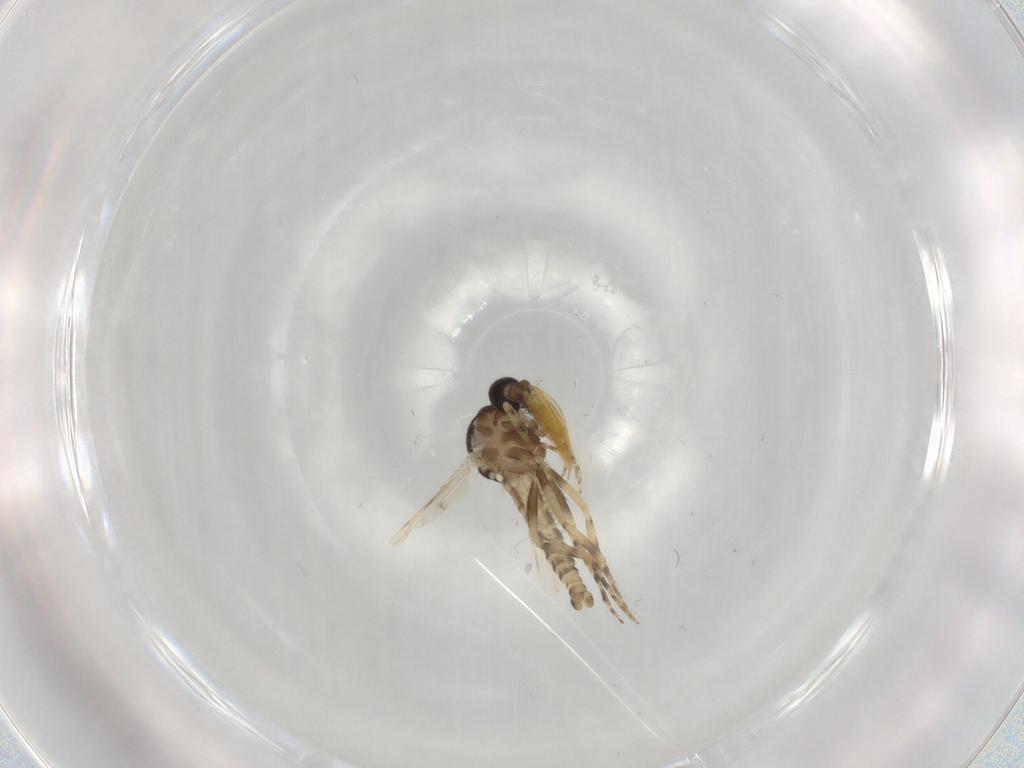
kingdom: Animalia
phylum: Arthropoda
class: Insecta
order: Diptera
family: Ceratopogonidae
